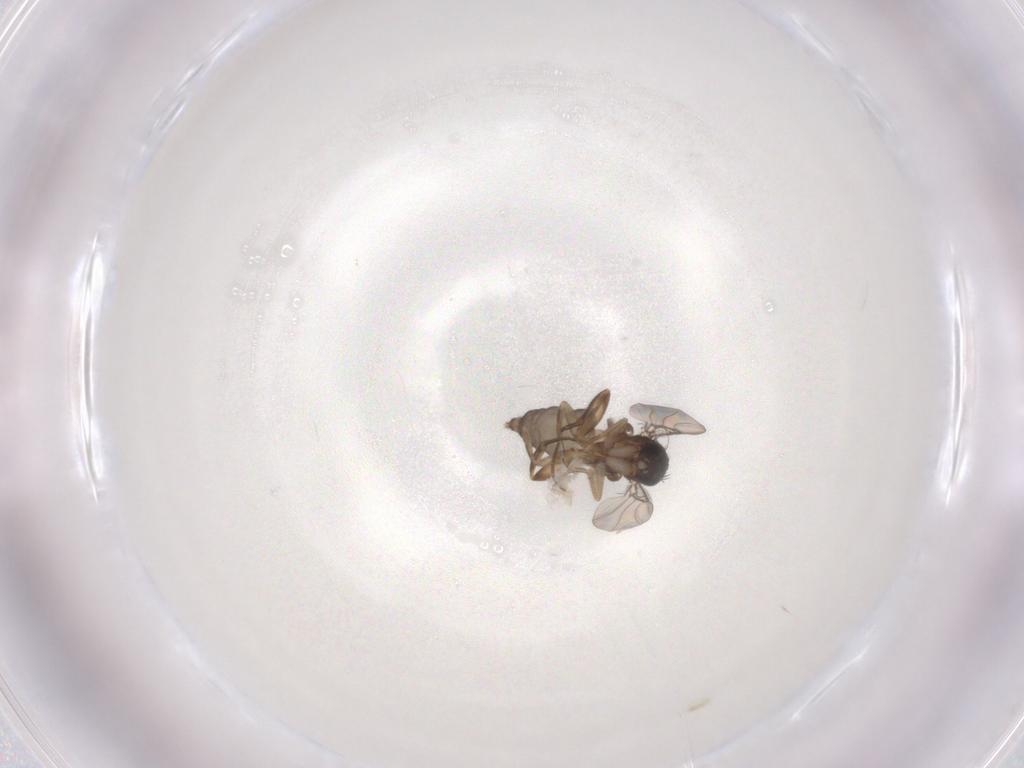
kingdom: Animalia
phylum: Arthropoda
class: Insecta
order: Diptera
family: Phoridae
